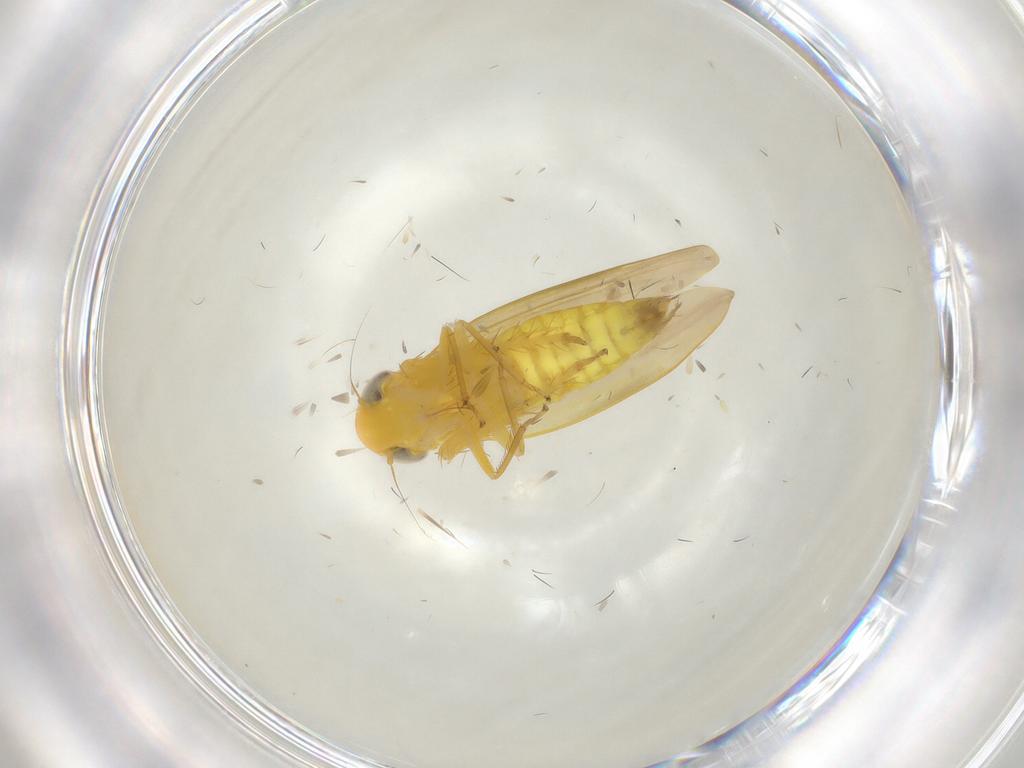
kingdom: Animalia
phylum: Arthropoda
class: Insecta
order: Hemiptera
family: Cicadellidae
